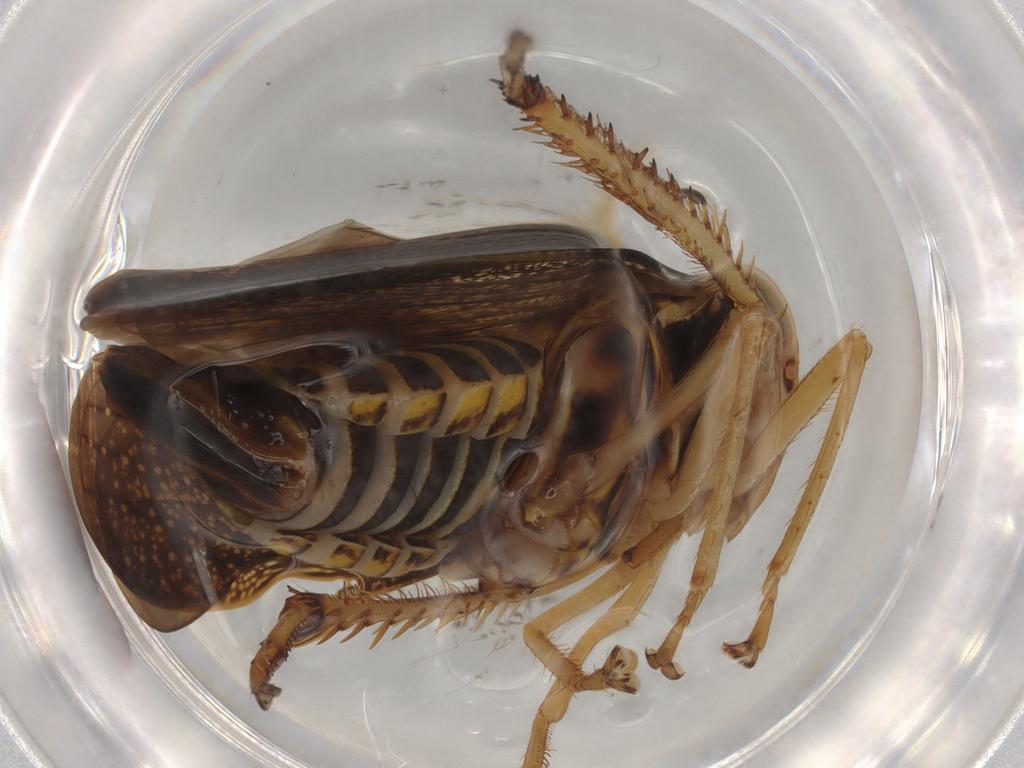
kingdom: Animalia
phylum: Arthropoda
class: Insecta
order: Hemiptera
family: Cicadellidae
